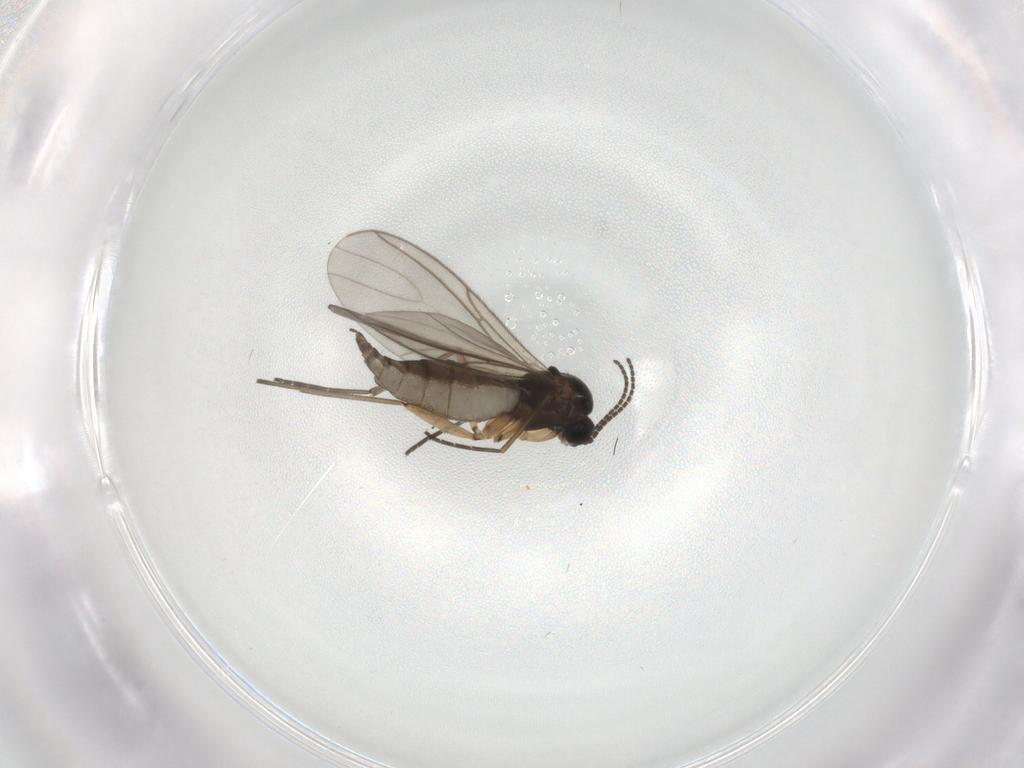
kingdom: Animalia
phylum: Arthropoda
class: Insecta
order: Diptera
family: Sciaridae
